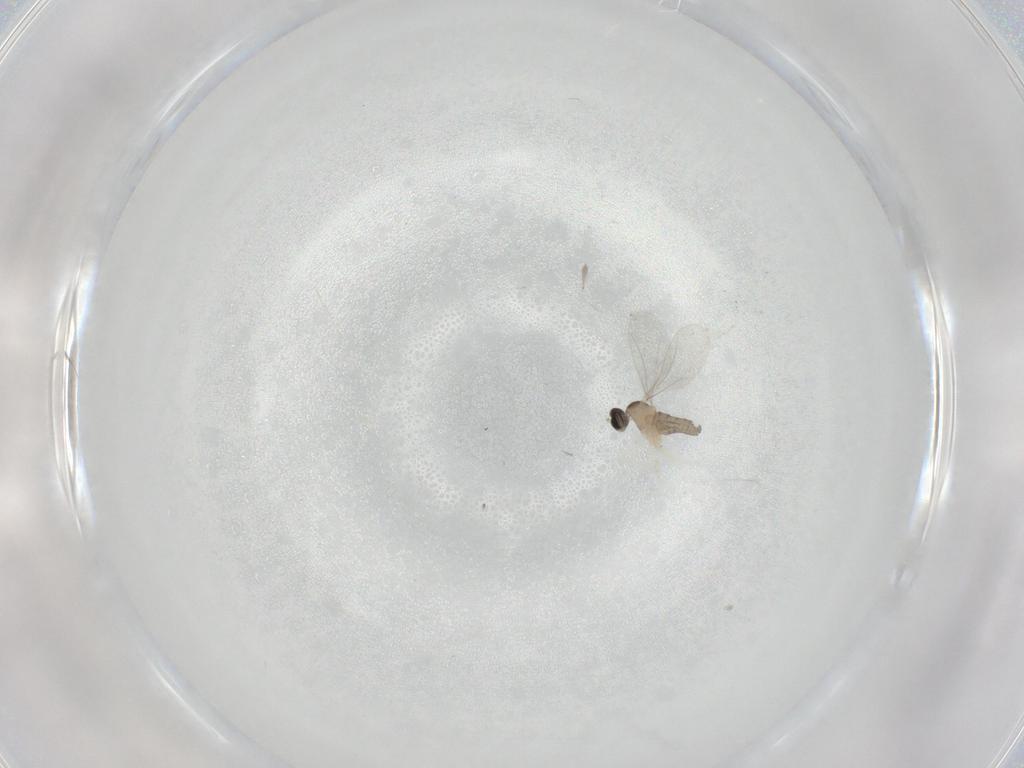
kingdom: Animalia
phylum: Arthropoda
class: Insecta
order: Diptera
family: Cecidomyiidae
